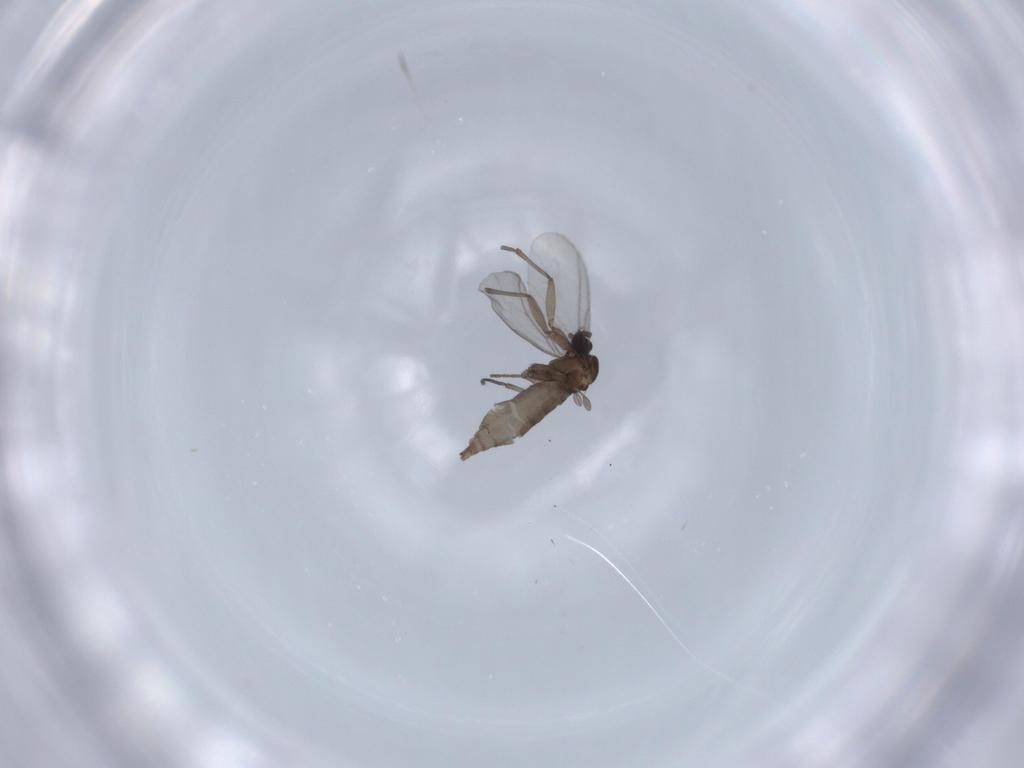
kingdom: Animalia
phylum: Arthropoda
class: Insecta
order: Diptera
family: Sciaridae
